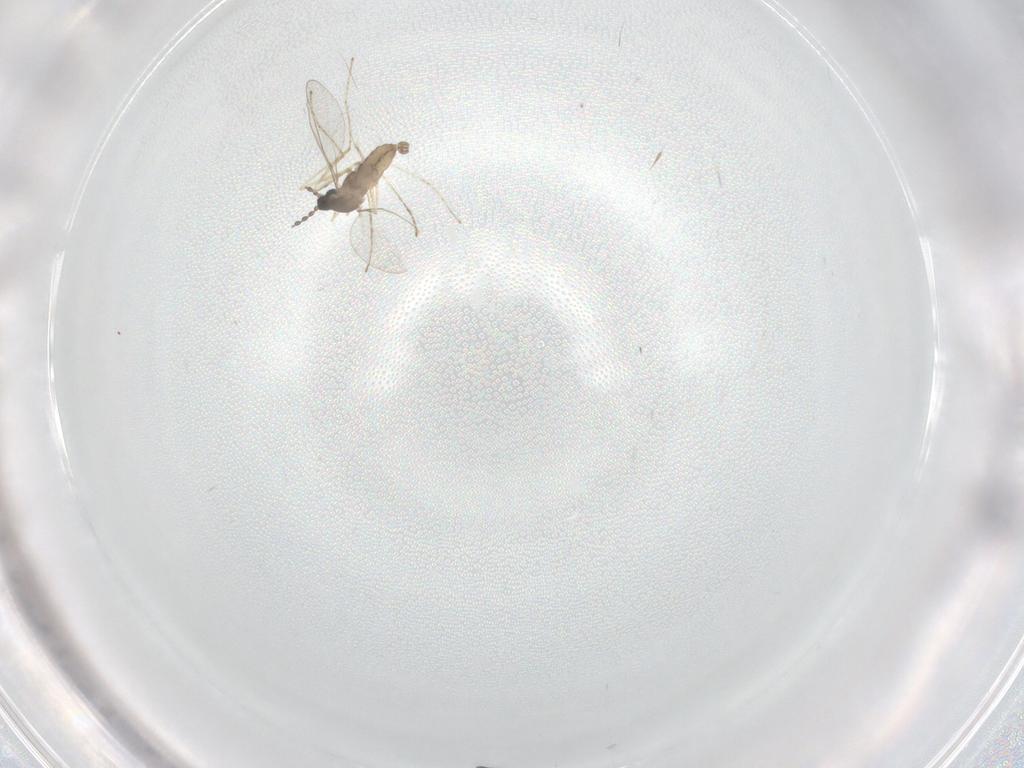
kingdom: Animalia
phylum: Arthropoda
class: Insecta
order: Diptera
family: Cecidomyiidae
